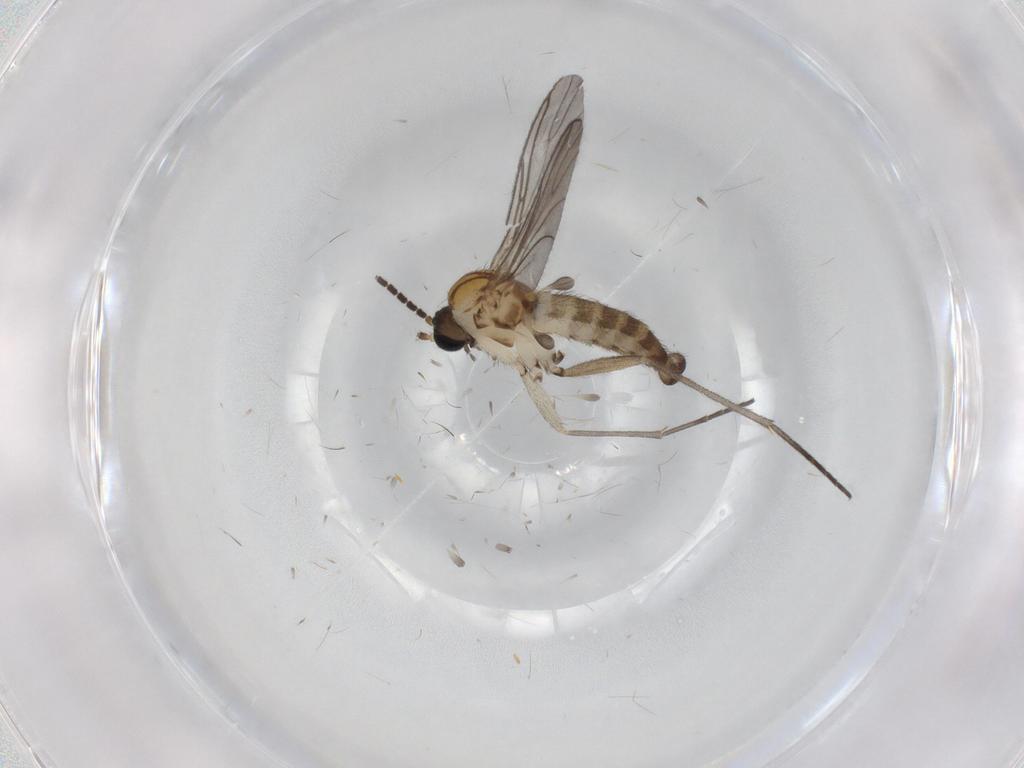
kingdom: Animalia
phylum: Arthropoda
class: Insecta
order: Diptera
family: Sciaridae
